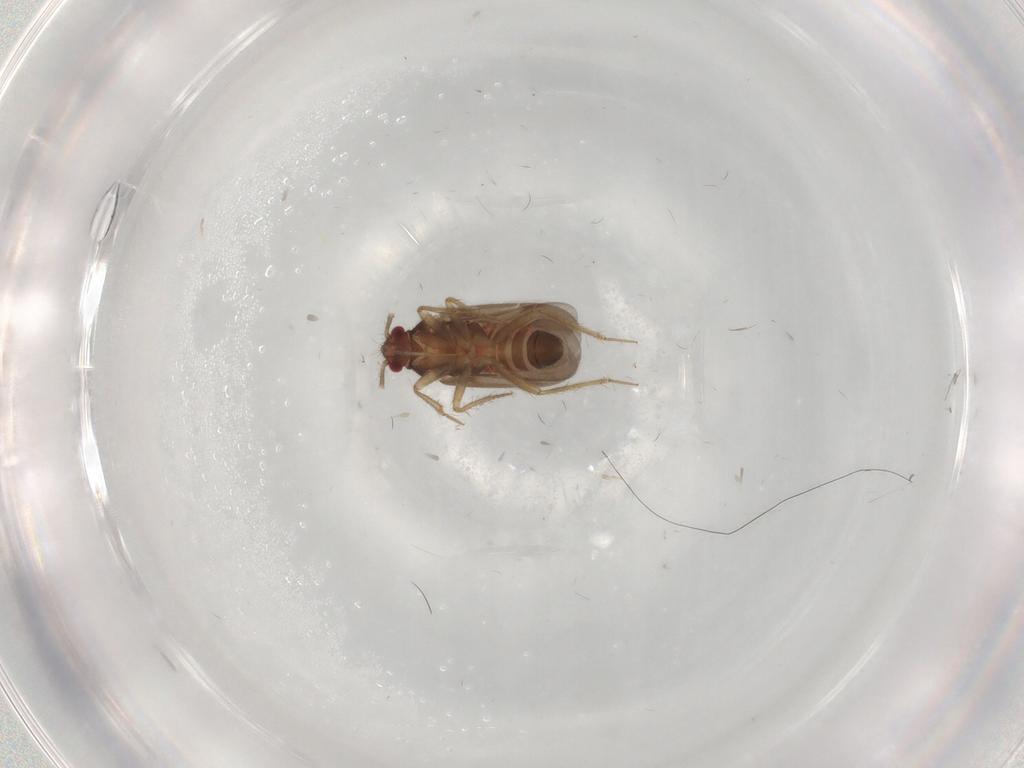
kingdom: Animalia
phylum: Arthropoda
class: Insecta
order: Hemiptera
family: Ceratocombidae
